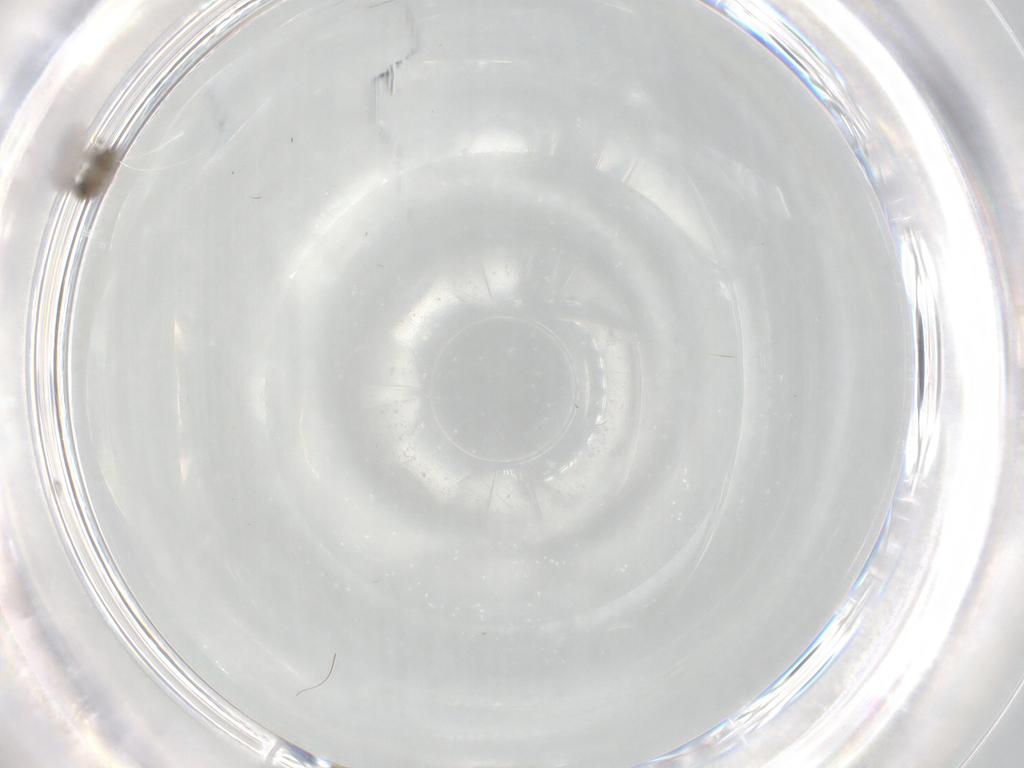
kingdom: Animalia
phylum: Arthropoda
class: Insecta
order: Diptera
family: Cecidomyiidae
